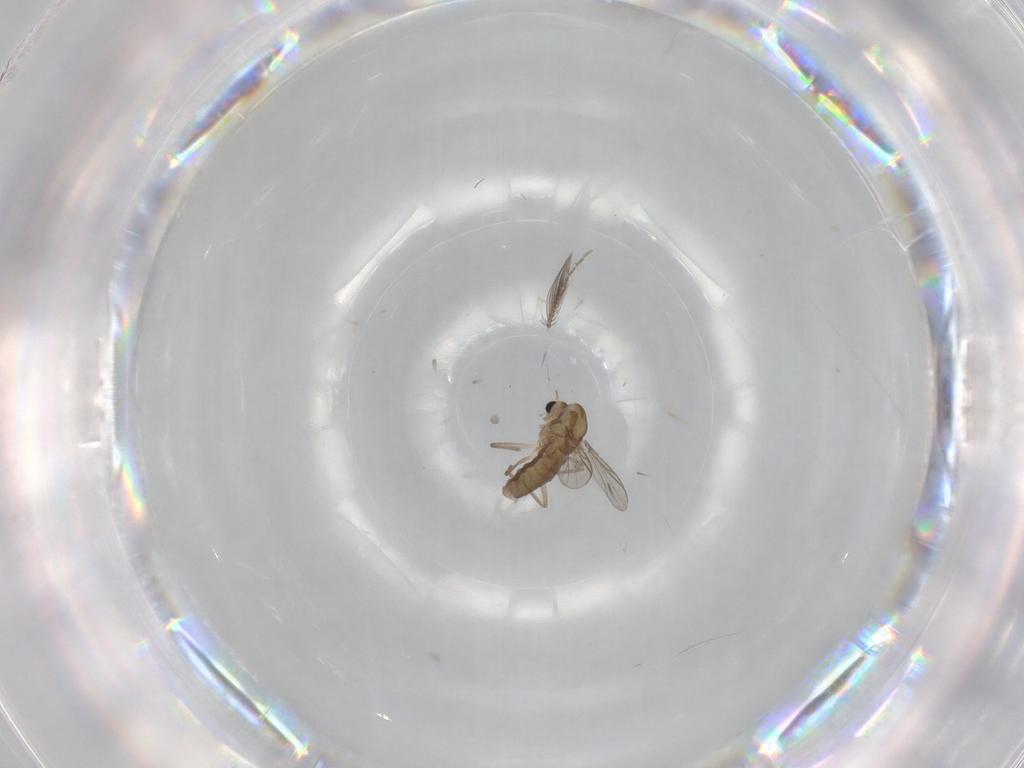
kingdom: Animalia
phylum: Arthropoda
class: Insecta
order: Diptera
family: Chironomidae
